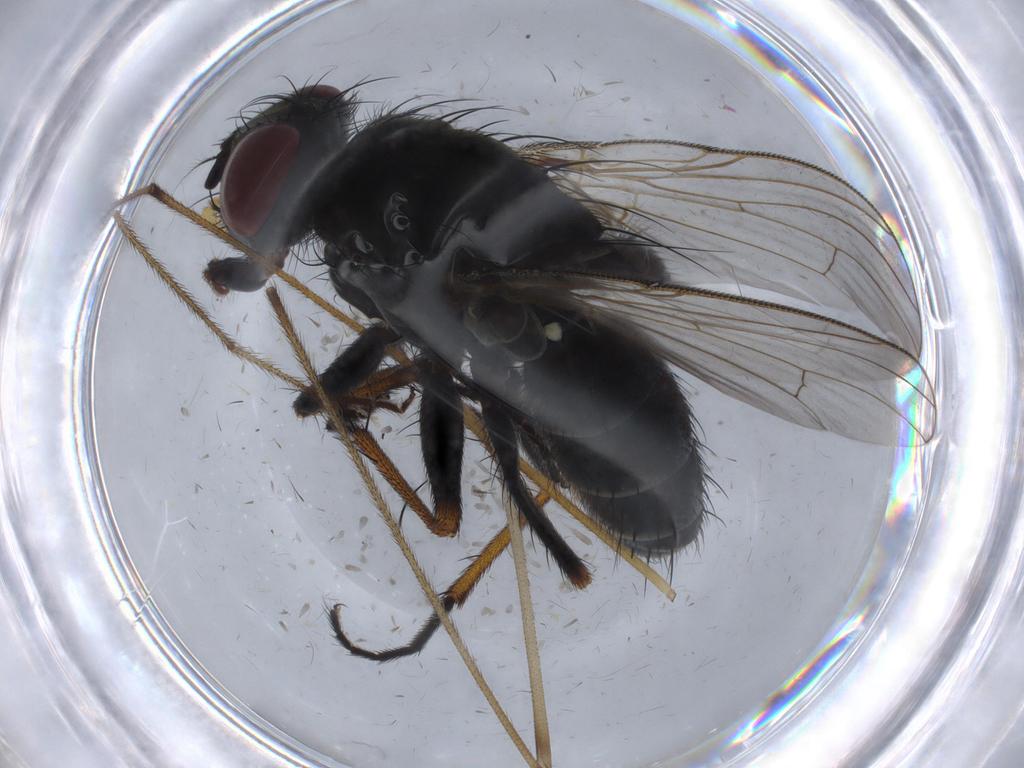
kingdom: Animalia
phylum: Arthropoda
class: Insecta
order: Diptera
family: Muscidae
